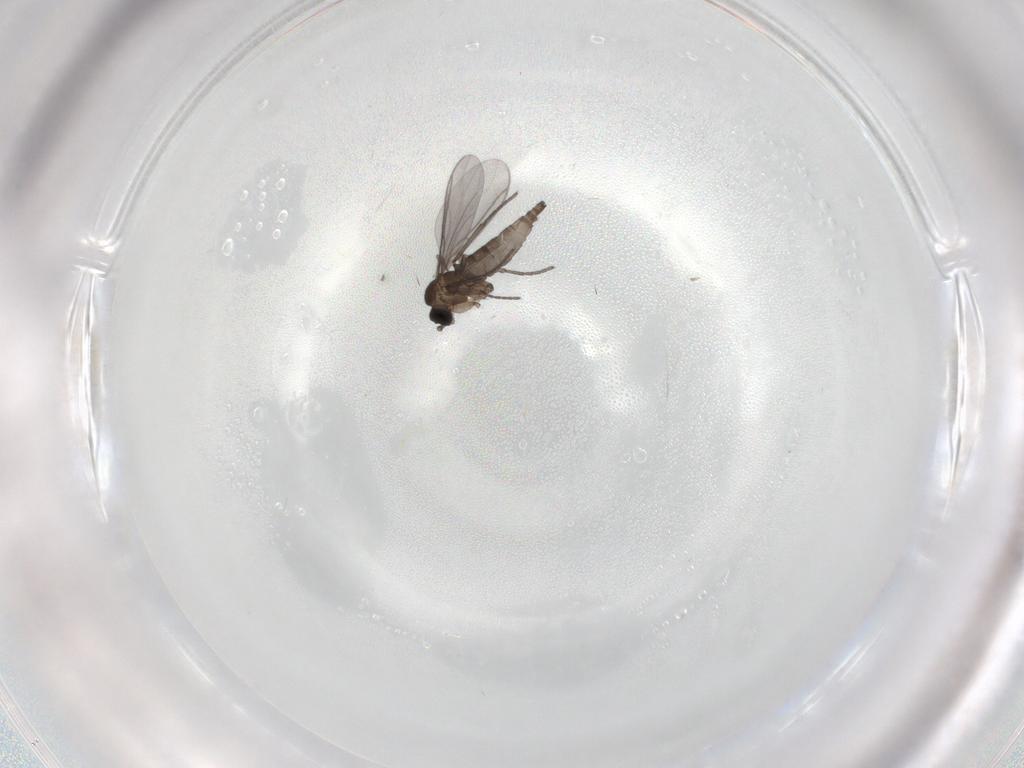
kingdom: Animalia
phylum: Arthropoda
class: Insecta
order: Diptera
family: Sciaridae
